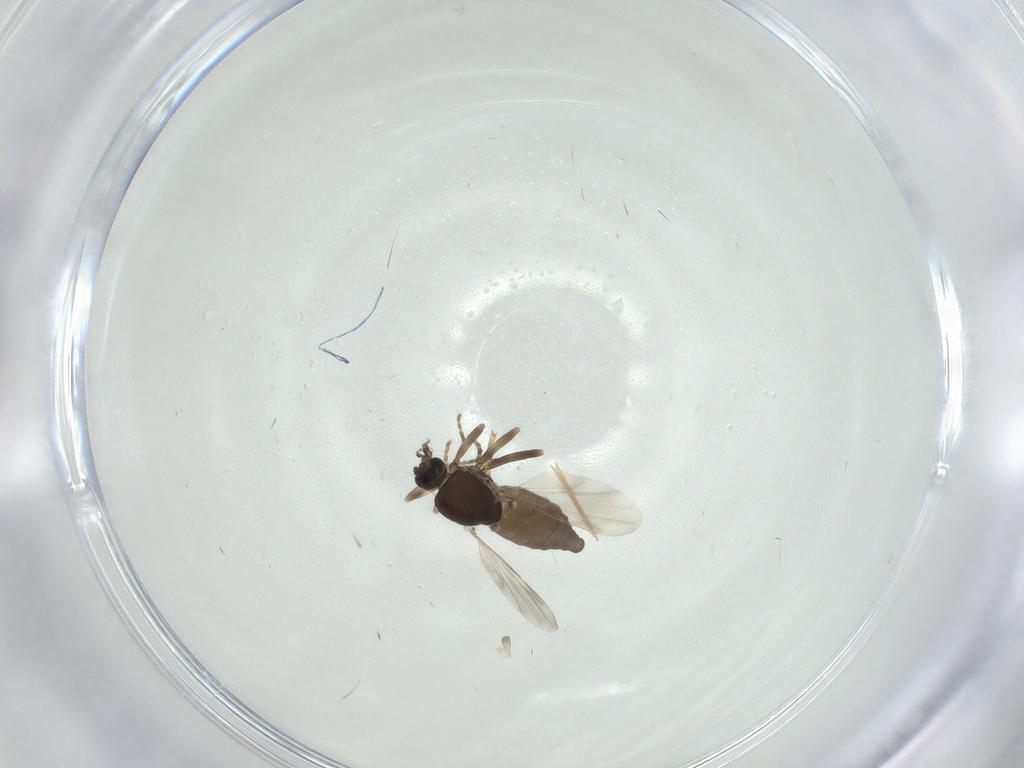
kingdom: Animalia
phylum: Arthropoda
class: Insecta
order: Diptera
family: Ceratopogonidae
